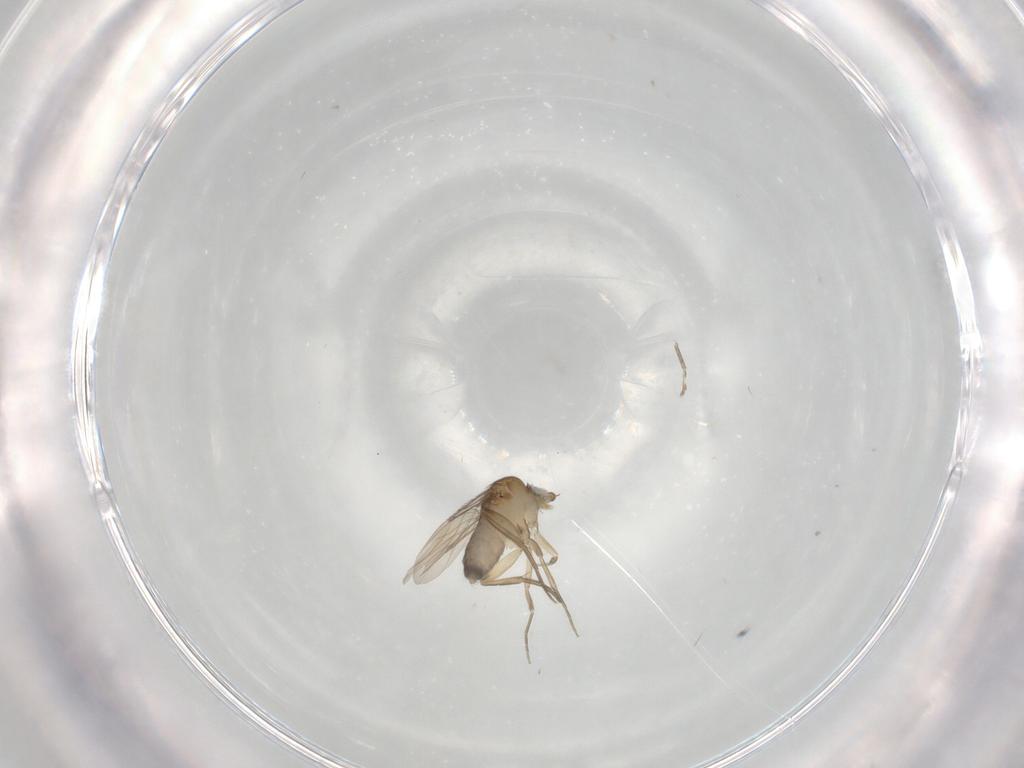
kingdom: Animalia
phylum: Arthropoda
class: Insecta
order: Diptera
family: Phoridae
